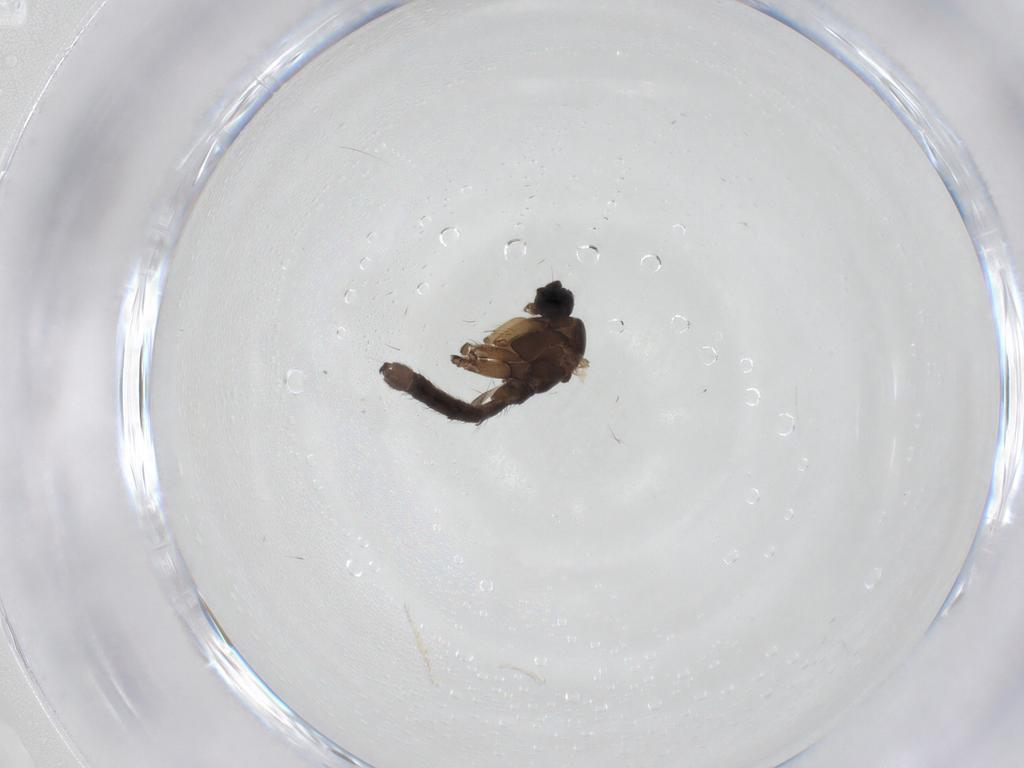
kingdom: Animalia
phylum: Arthropoda
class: Insecta
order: Diptera
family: Sciaridae
